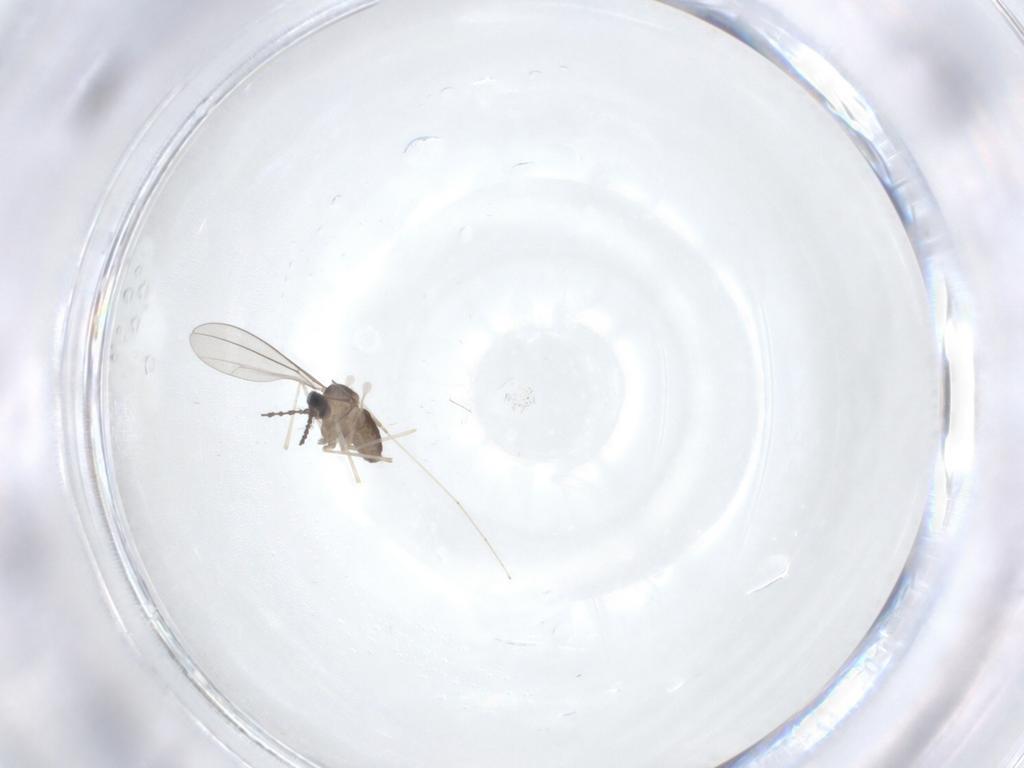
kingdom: Animalia
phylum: Arthropoda
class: Insecta
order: Diptera
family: Cecidomyiidae
